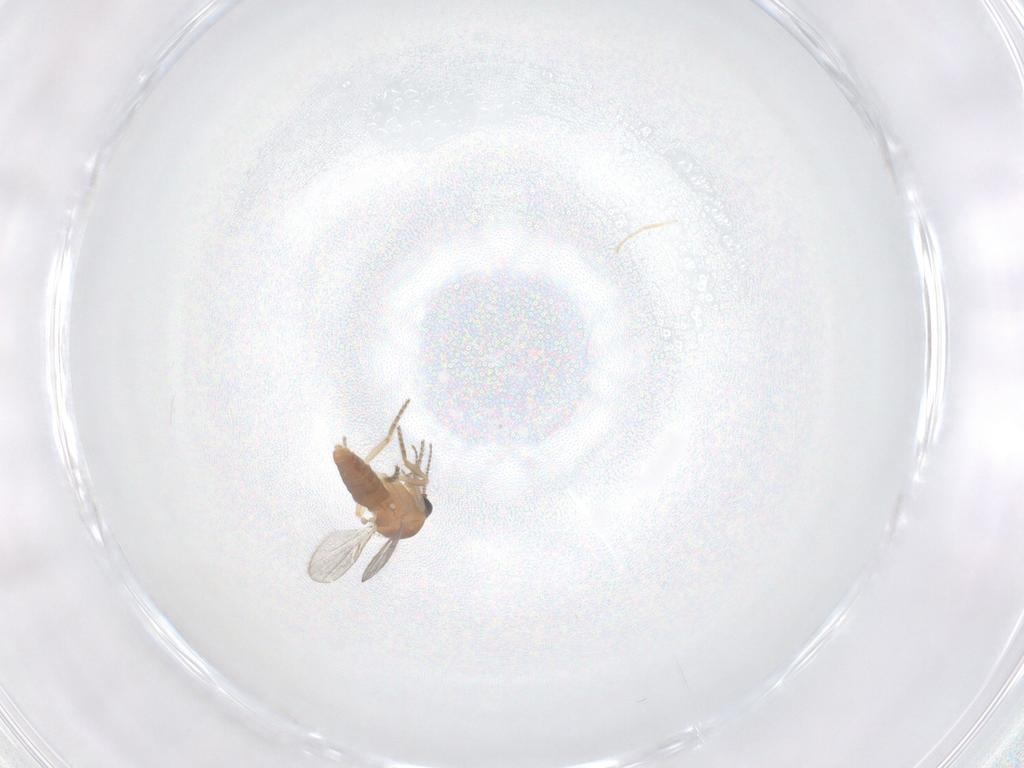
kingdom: Animalia
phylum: Arthropoda
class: Insecta
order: Diptera
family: Ceratopogonidae
